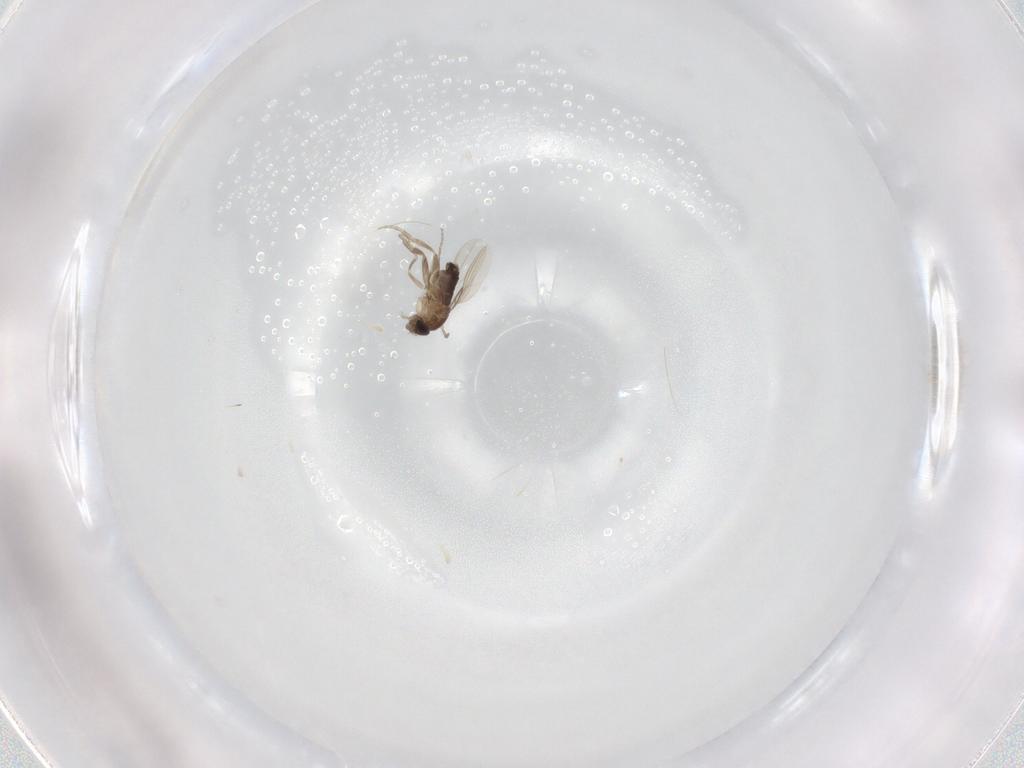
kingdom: Animalia
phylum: Arthropoda
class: Insecta
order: Diptera
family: Phoridae
